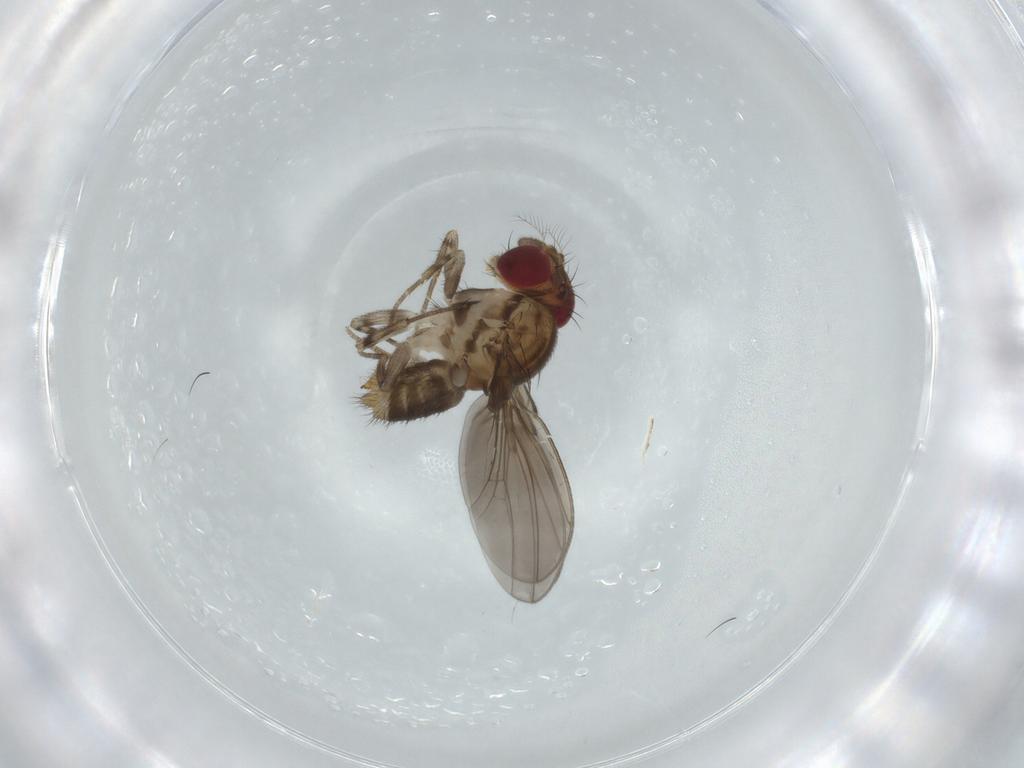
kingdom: Animalia
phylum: Arthropoda
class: Insecta
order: Diptera
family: Drosophilidae
